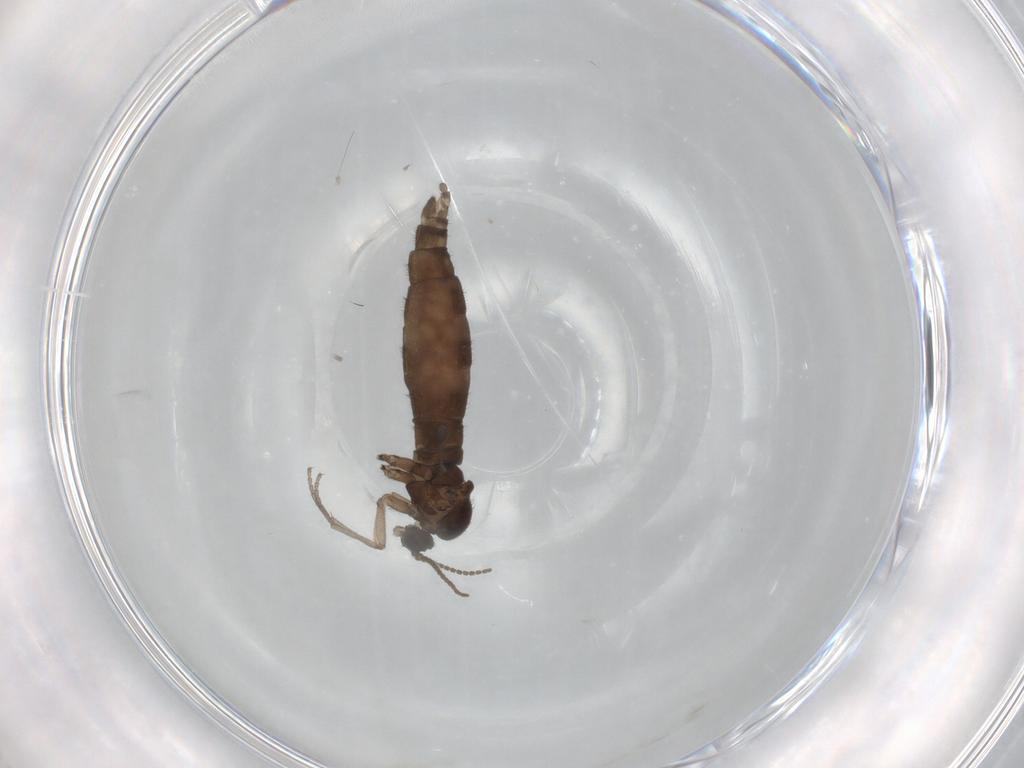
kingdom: Animalia
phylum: Arthropoda
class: Insecta
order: Diptera
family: Sciaridae
